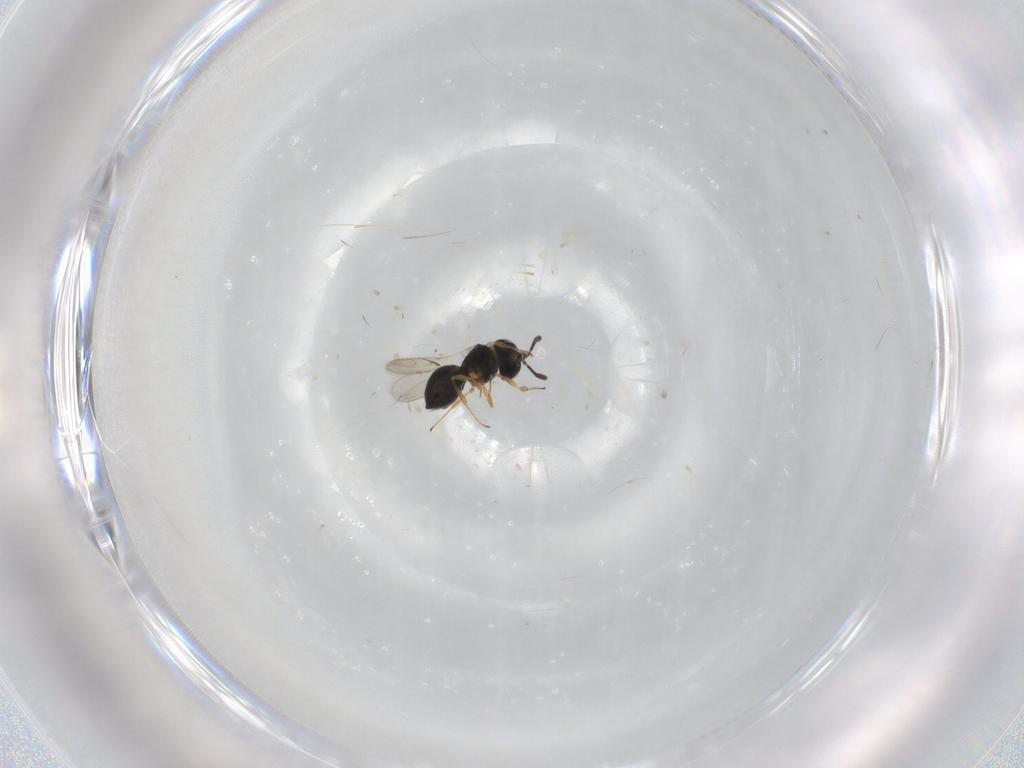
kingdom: Animalia
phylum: Arthropoda
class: Insecta
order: Hymenoptera
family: Scelionidae
